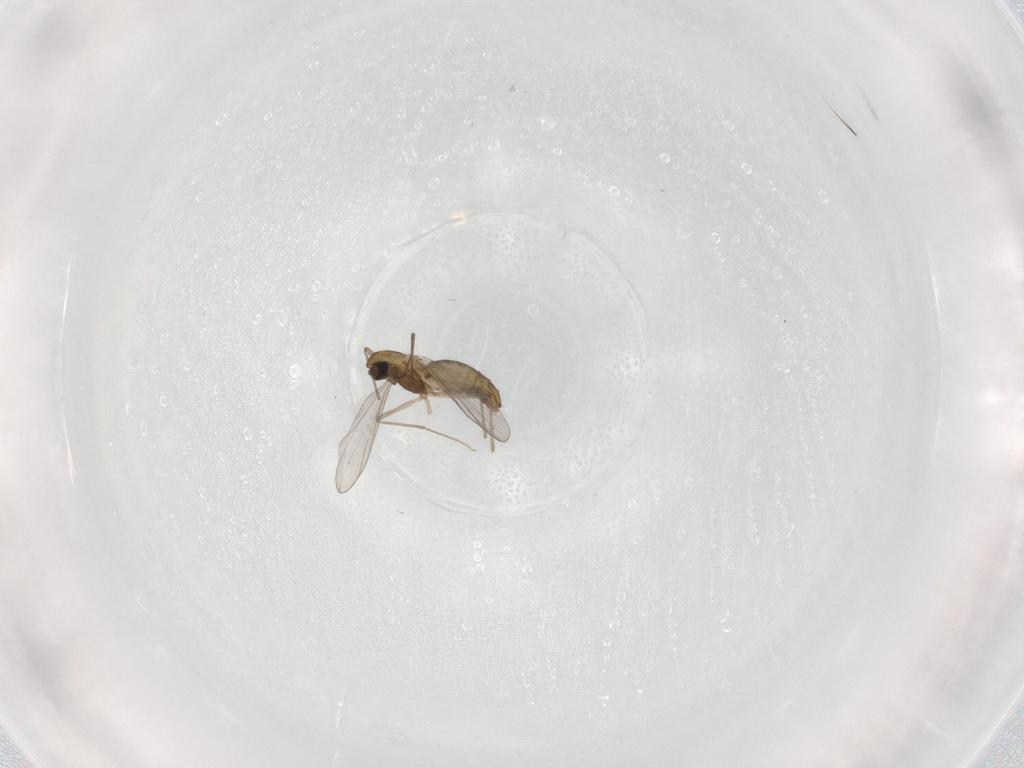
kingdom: Animalia
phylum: Arthropoda
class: Insecta
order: Diptera
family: Chironomidae
